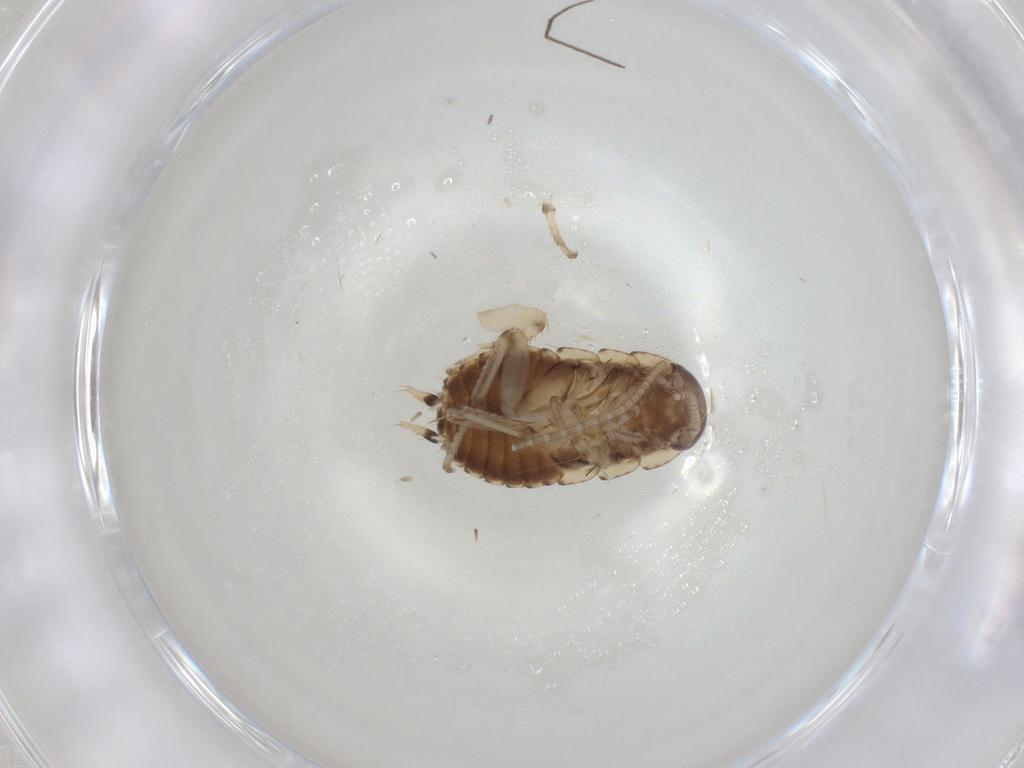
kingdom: Animalia
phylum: Arthropoda
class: Insecta
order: Blattodea
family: Blaberidae
